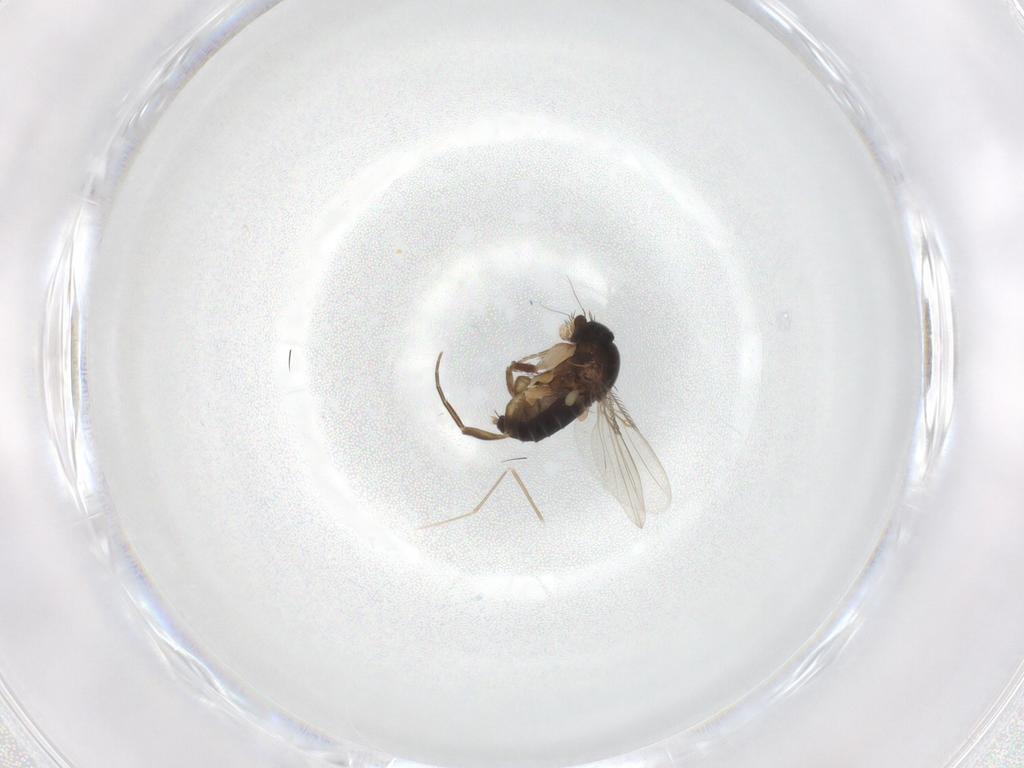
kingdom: Animalia
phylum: Arthropoda
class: Insecta
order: Diptera
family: Phoridae
